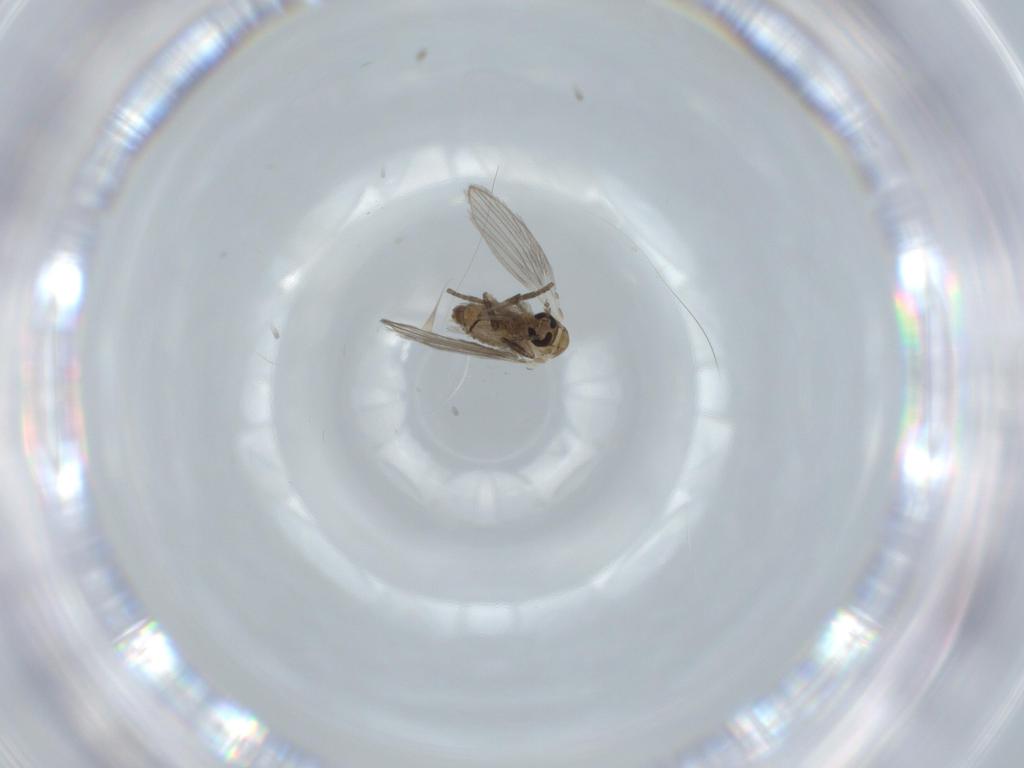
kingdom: Animalia
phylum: Arthropoda
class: Insecta
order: Diptera
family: Psychodidae
